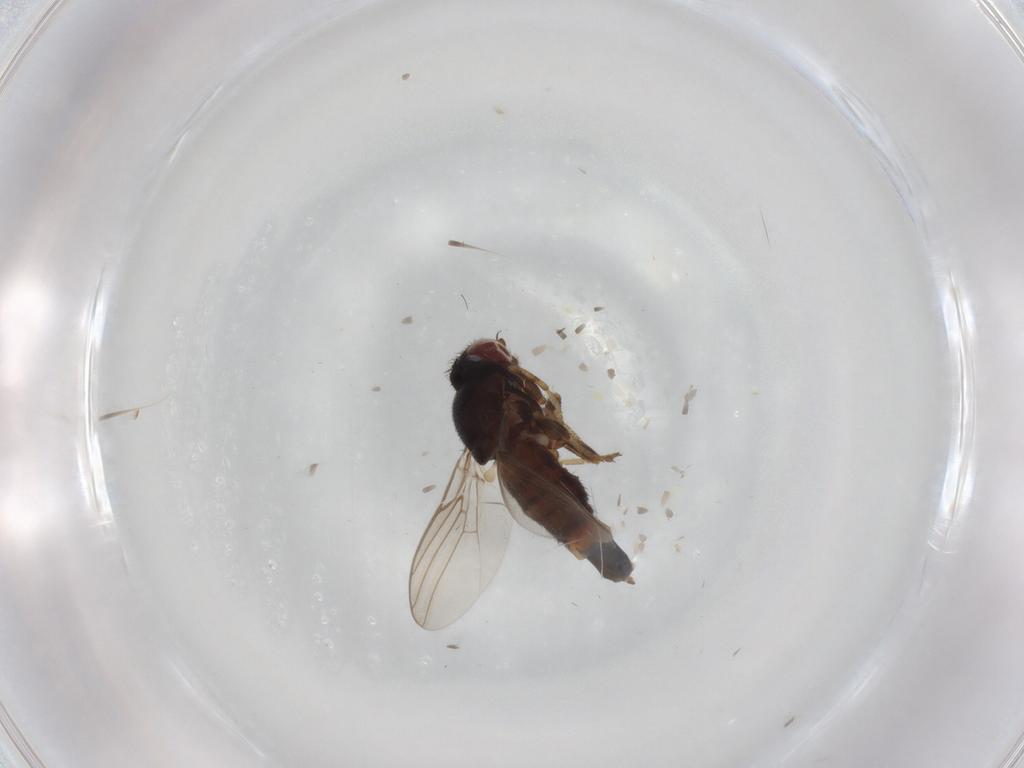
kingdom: Animalia
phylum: Arthropoda
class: Insecta
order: Diptera
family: Chloropidae
